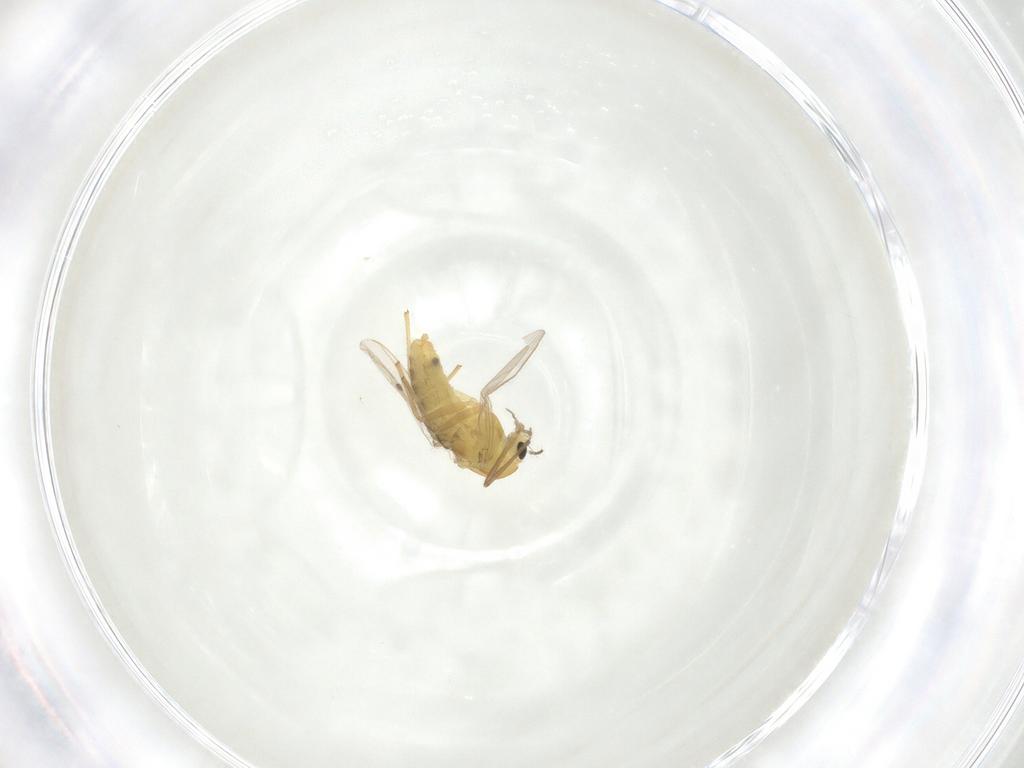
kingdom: Animalia
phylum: Arthropoda
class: Insecta
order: Diptera
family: Chironomidae
